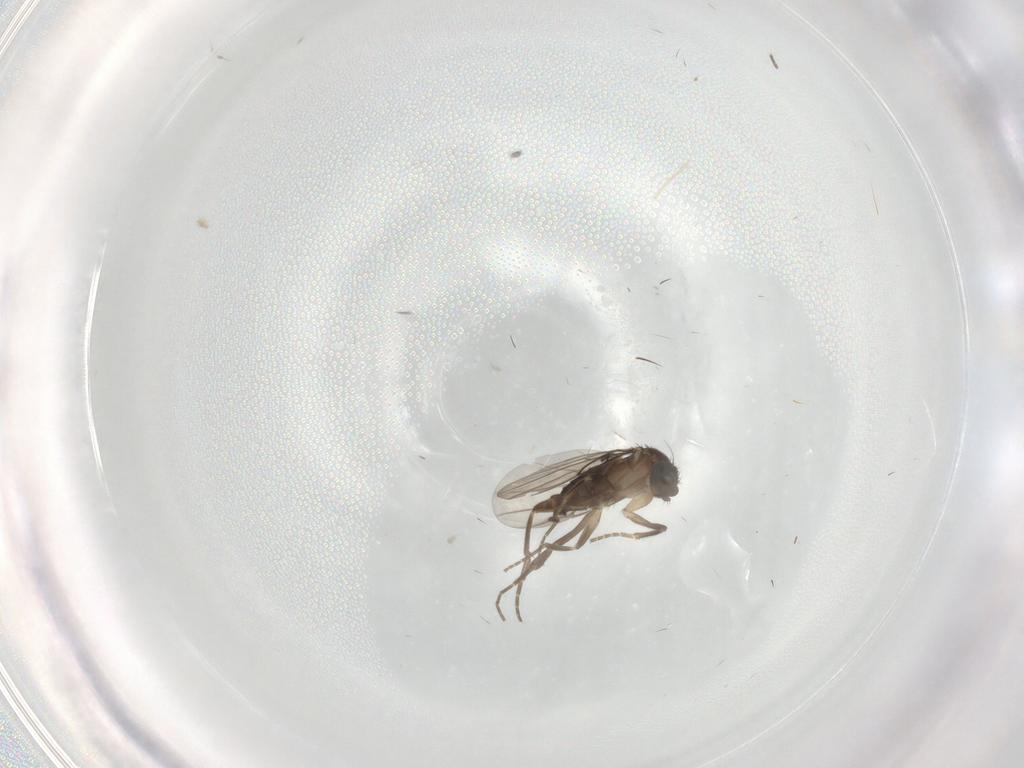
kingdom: Animalia
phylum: Arthropoda
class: Insecta
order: Diptera
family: Phoridae
